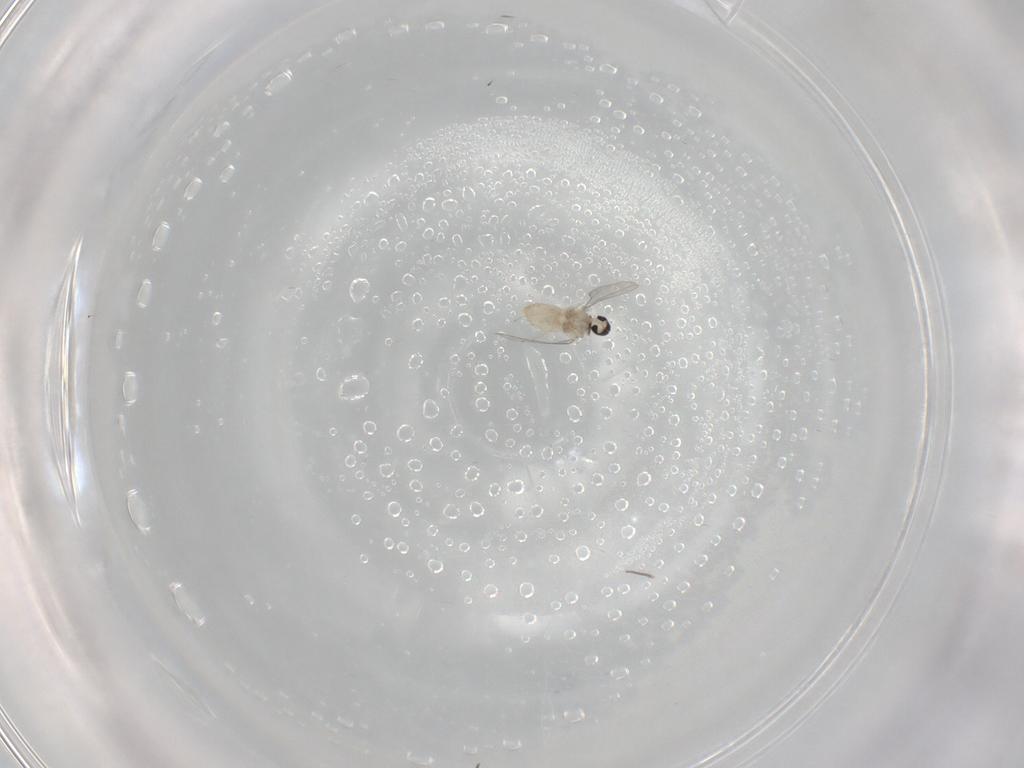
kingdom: Animalia
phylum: Arthropoda
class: Insecta
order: Diptera
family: Cecidomyiidae
